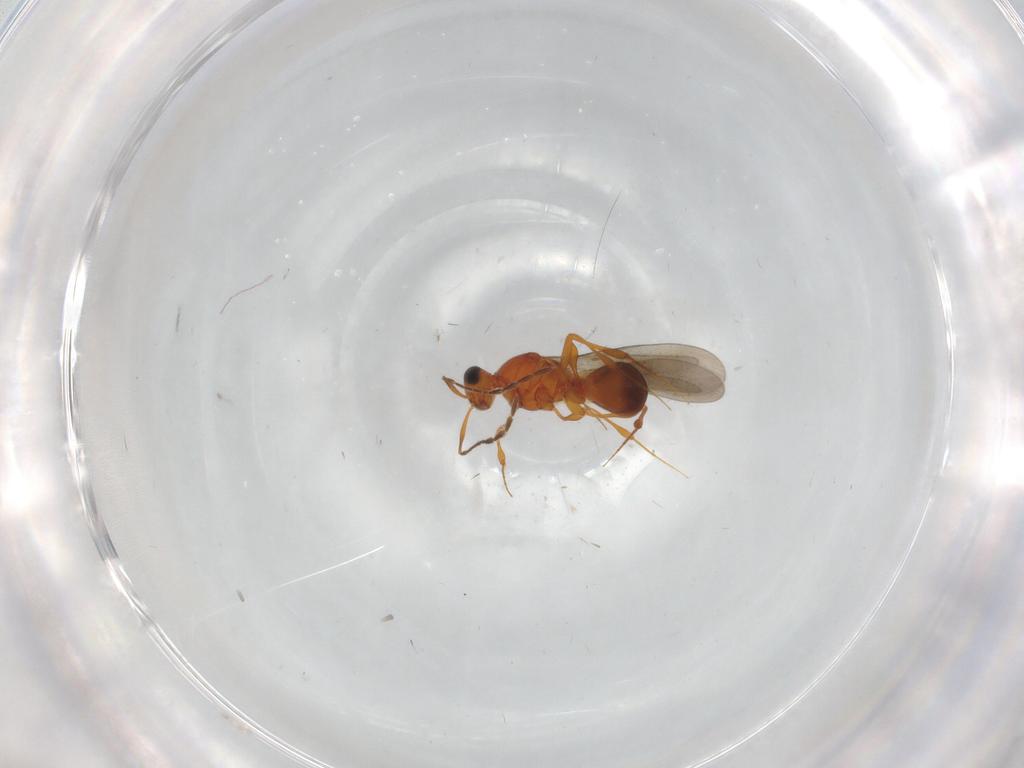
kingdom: Animalia
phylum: Arthropoda
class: Insecta
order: Hymenoptera
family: Platygastridae
